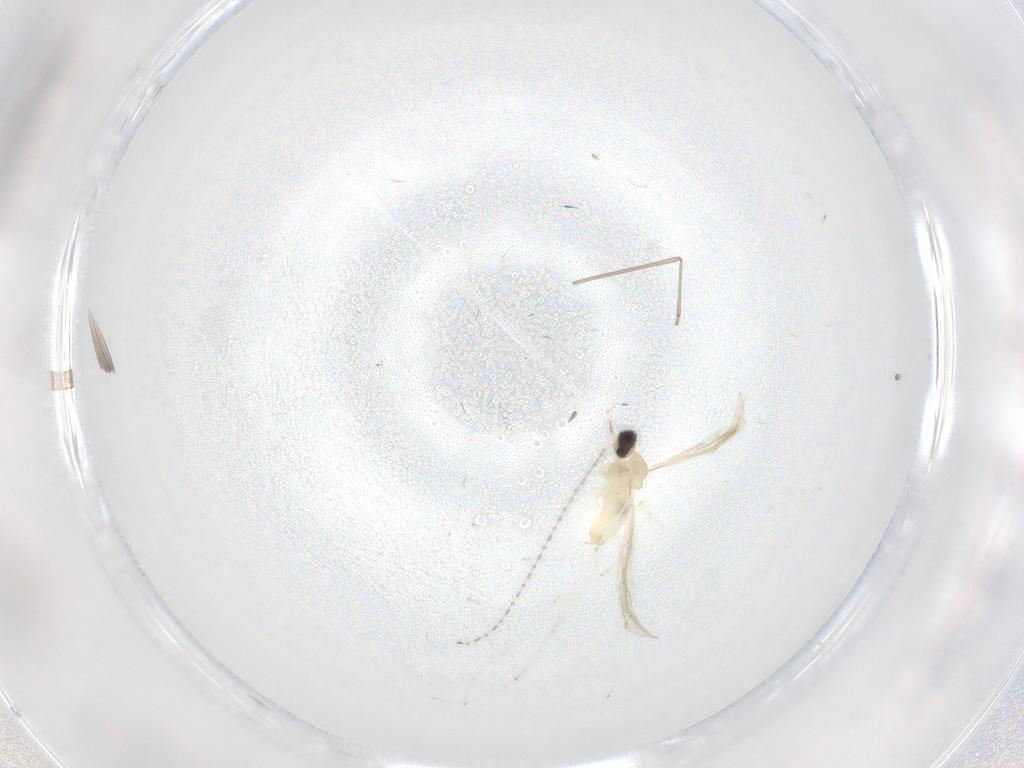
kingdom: Animalia
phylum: Arthropoda
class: Insecta
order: Diptera
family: Cecidomyiidae
